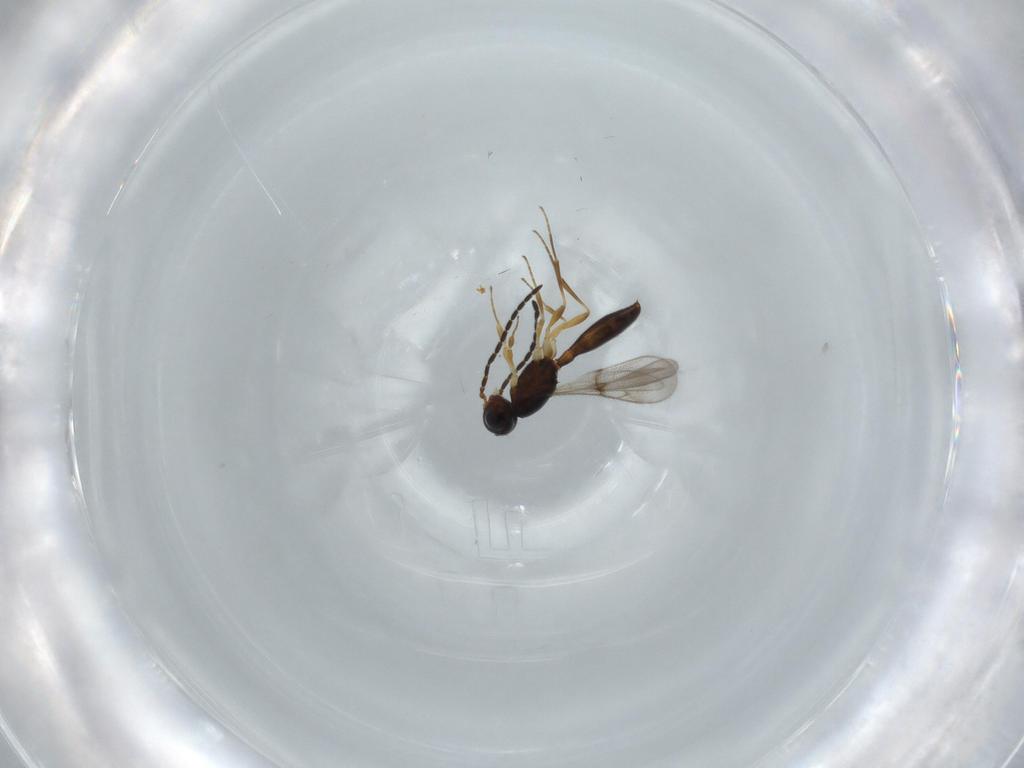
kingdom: Animalia
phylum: Arthropoda
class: Insecta
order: Hymenoptera
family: Scelionidae
